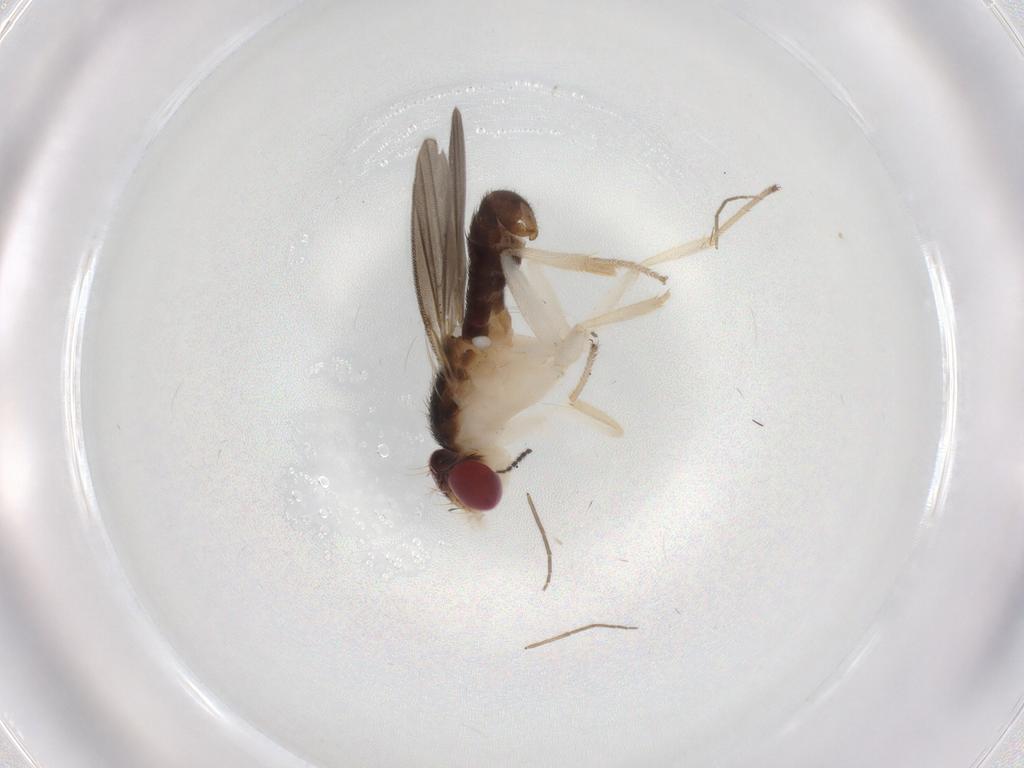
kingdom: Animalia
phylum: Arthropoda
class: Insecta
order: Diptera
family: Chironomidae
